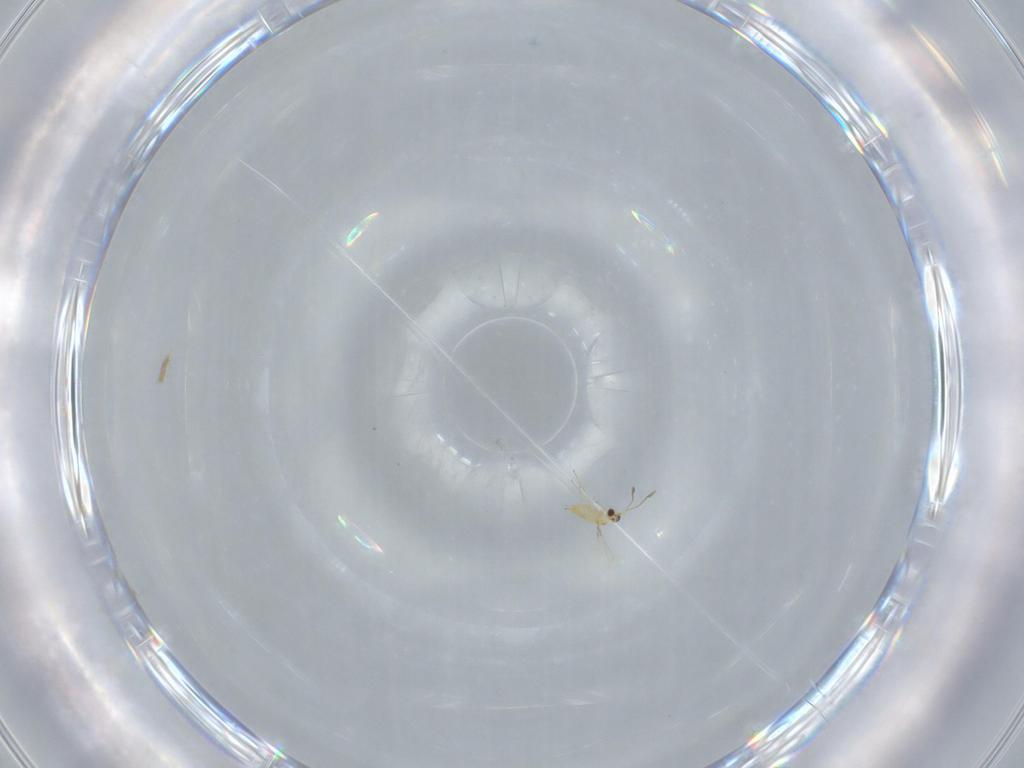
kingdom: Animalia
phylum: Arthropoda
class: Insecta
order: Hymenoptera
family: Mymaridae
